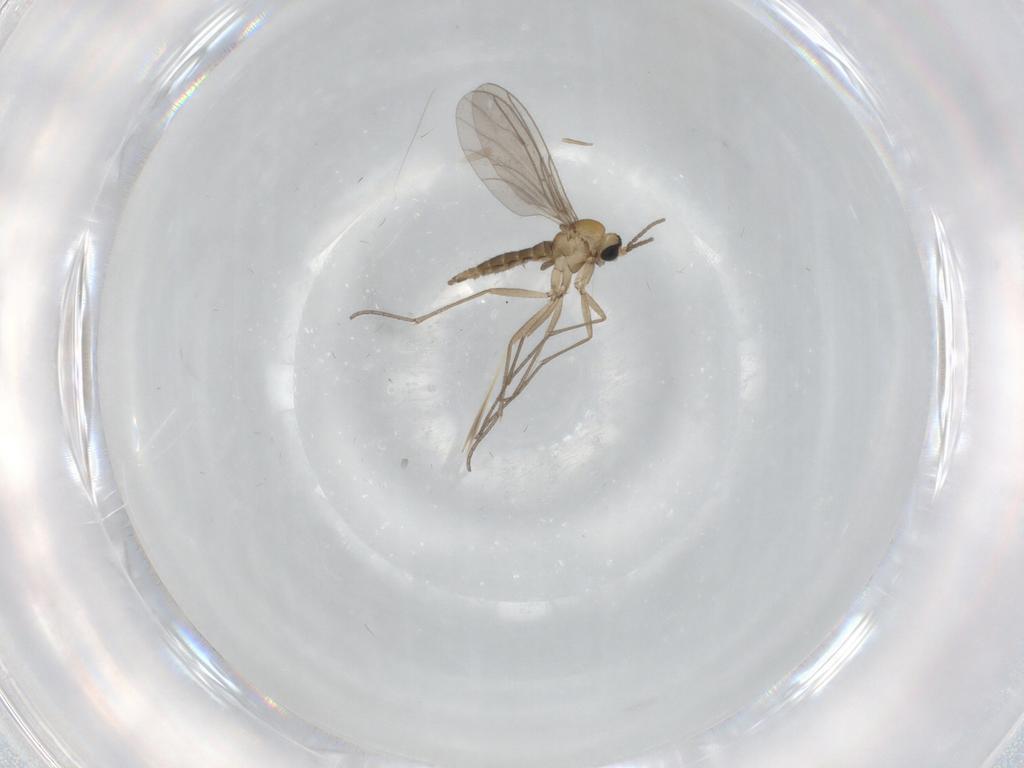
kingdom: Animalia
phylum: Arthropoda
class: Insecta
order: Diptera
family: Sciaridae
